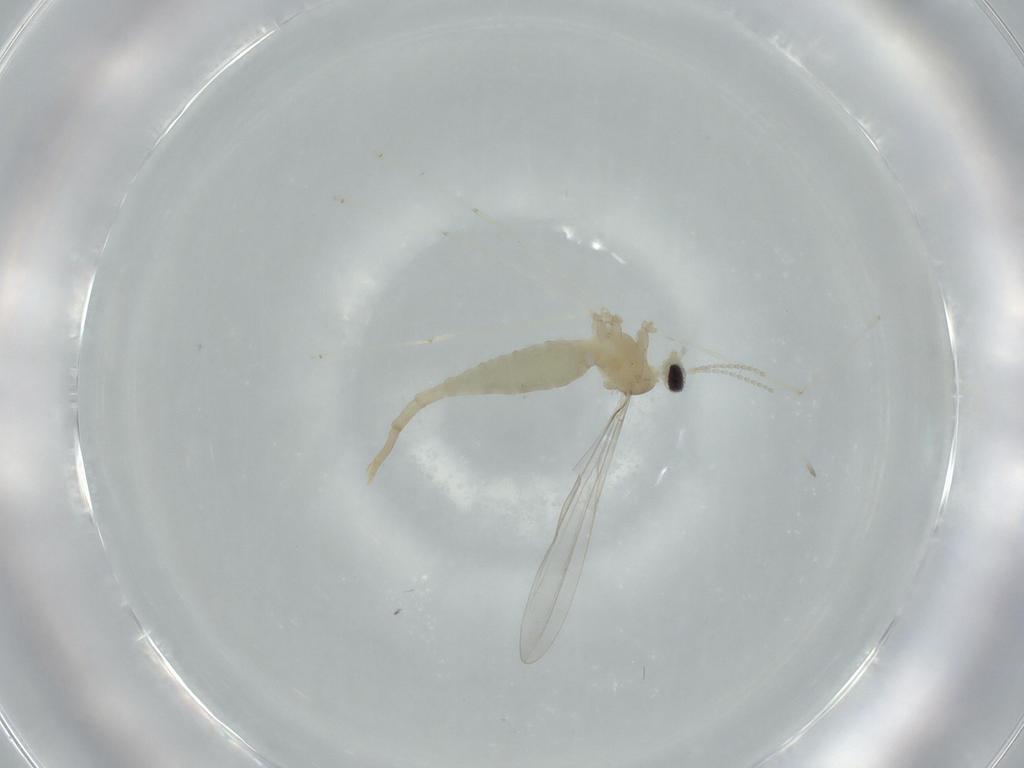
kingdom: Animalia
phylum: Arthropoda
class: Insecta
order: Diptera
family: Cecidomyiidae
